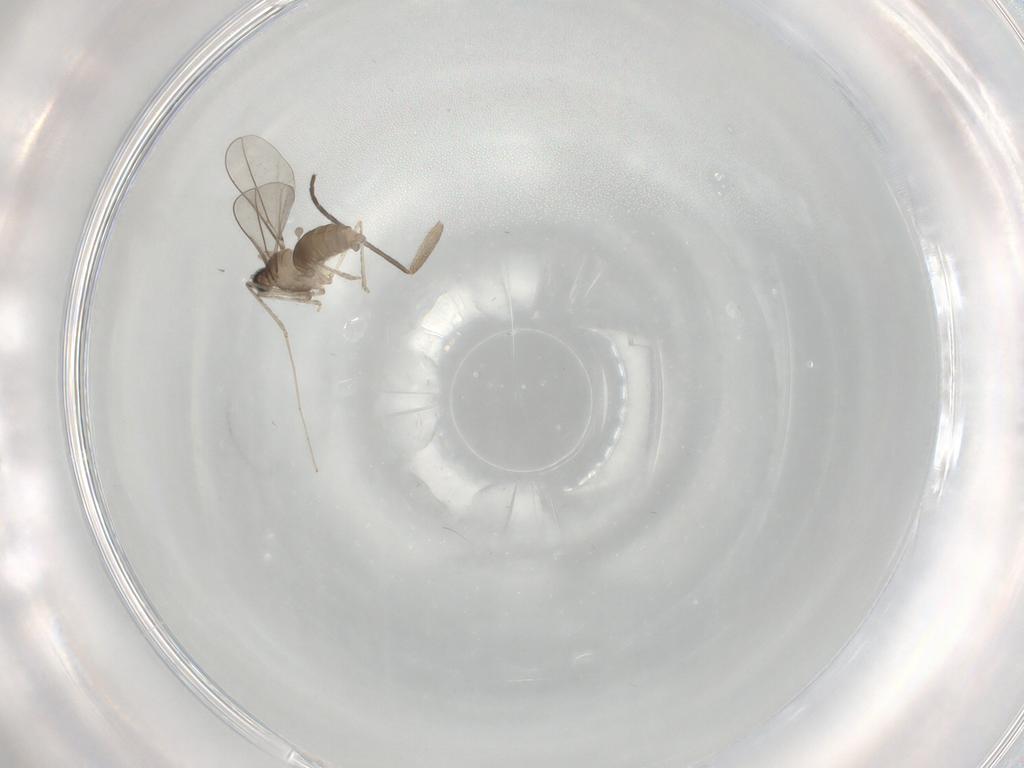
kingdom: Animalia
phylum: Arthropoda
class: Insecta
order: Diptera
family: Cecidomyiidae
